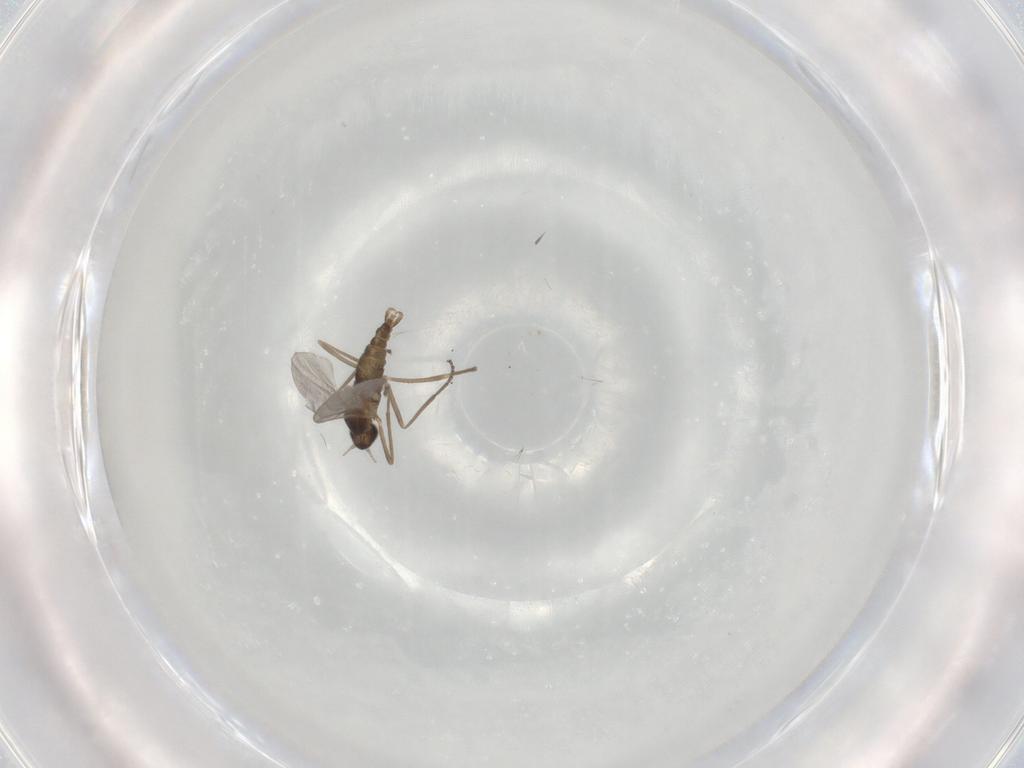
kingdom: Animalia
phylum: Arthropoda
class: Insecta
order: Diptera
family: Cecidomyiidae
